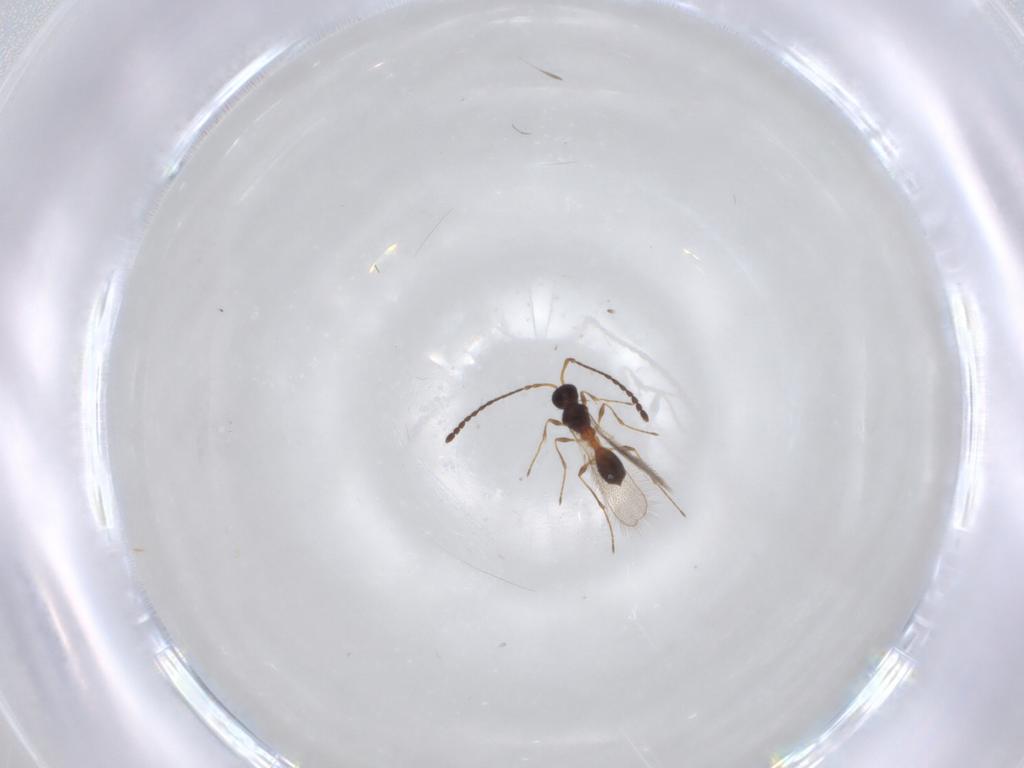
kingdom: Animalia
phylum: Arthropoda
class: Insecta
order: Hymenoptera
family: Diapriidae
